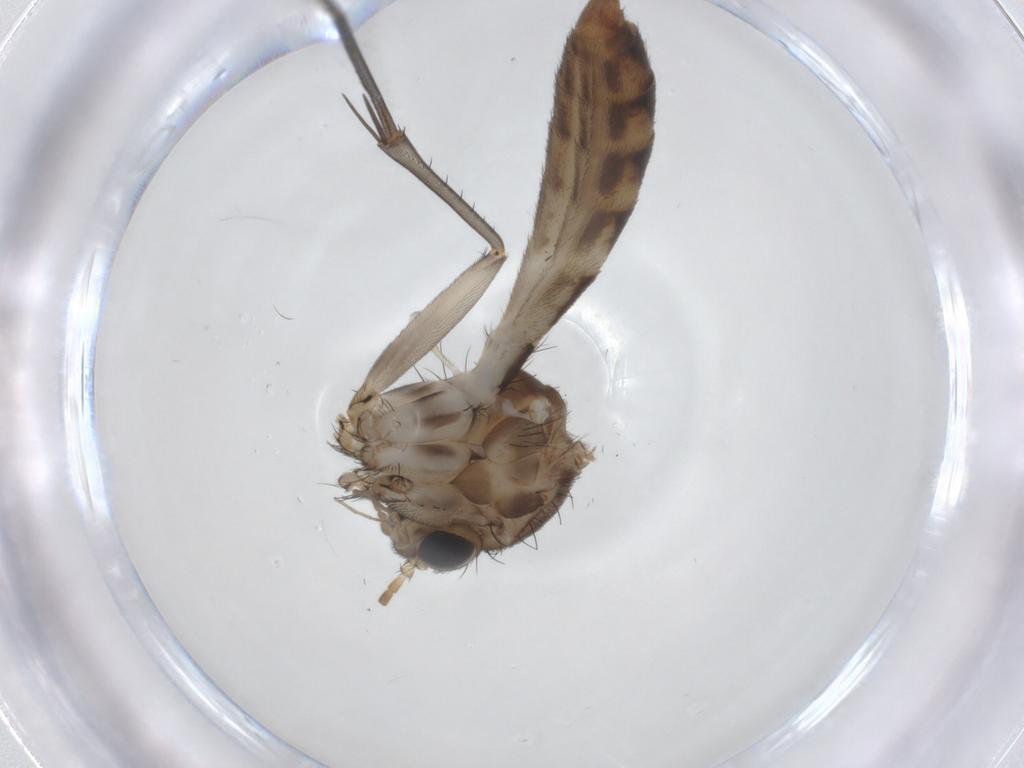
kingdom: Animalia
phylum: Arthropoda
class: Insecta
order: Diptera
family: Sciaridae
